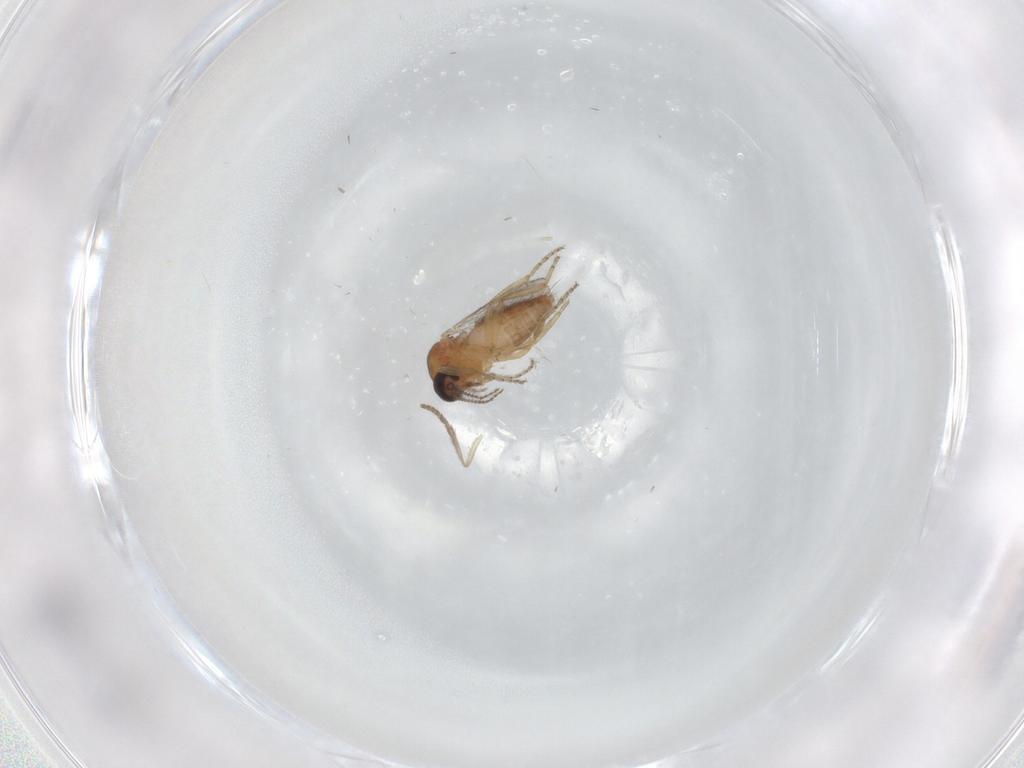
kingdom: Animalia
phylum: Arthropoda
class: Insecta
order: Diptera
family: Ceratopogonidae
